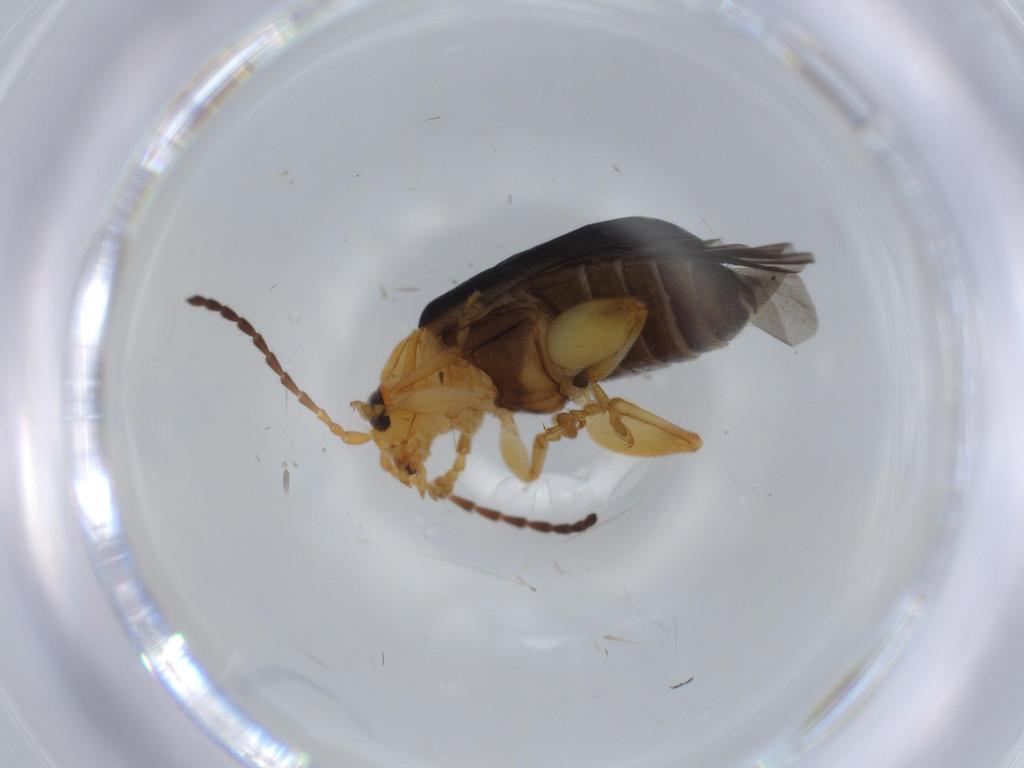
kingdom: Animalia
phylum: Arthropoda
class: Insecta
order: Coleoptera
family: Chrysomelidae
